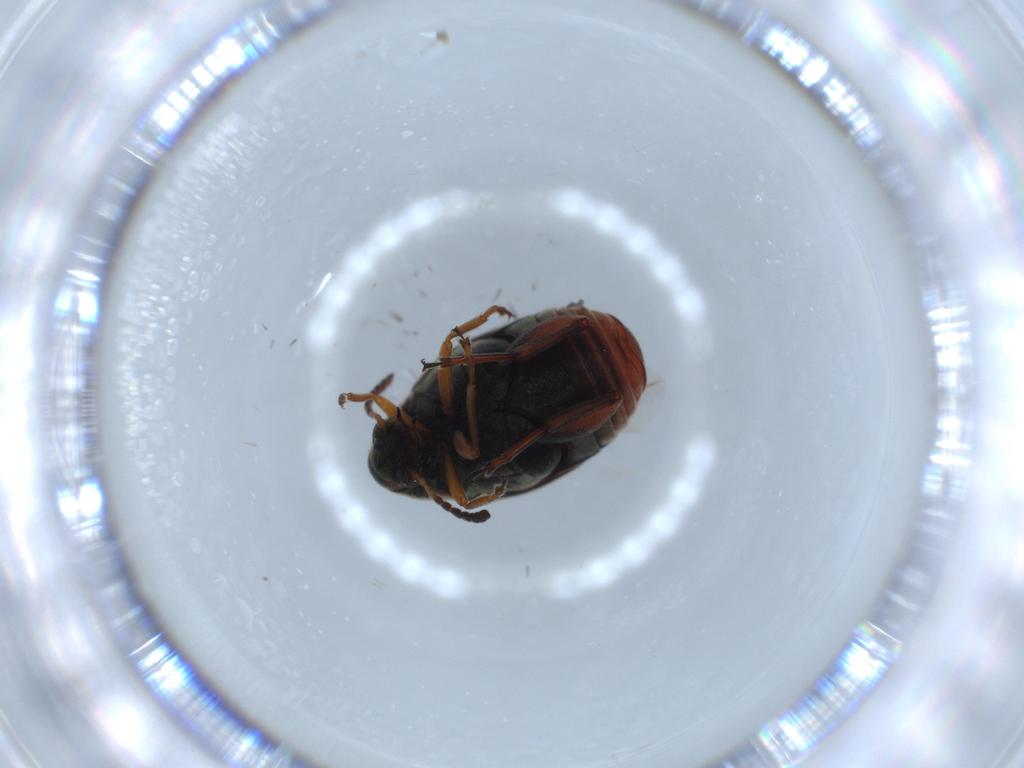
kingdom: Animalia
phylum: Arthropoda
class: Insecta
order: Coleoptera
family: Chrysomelidae
